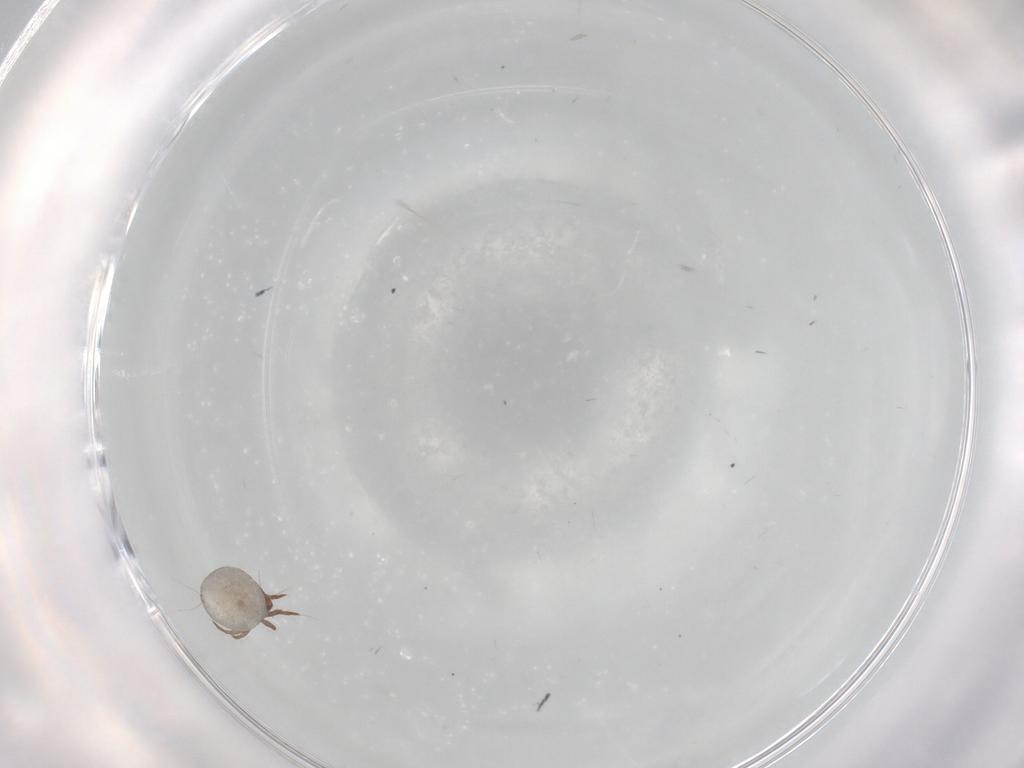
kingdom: Animalia
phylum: Arthropoda
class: Arachnida
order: Sarcoptiformes
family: Ceratoppiidae
